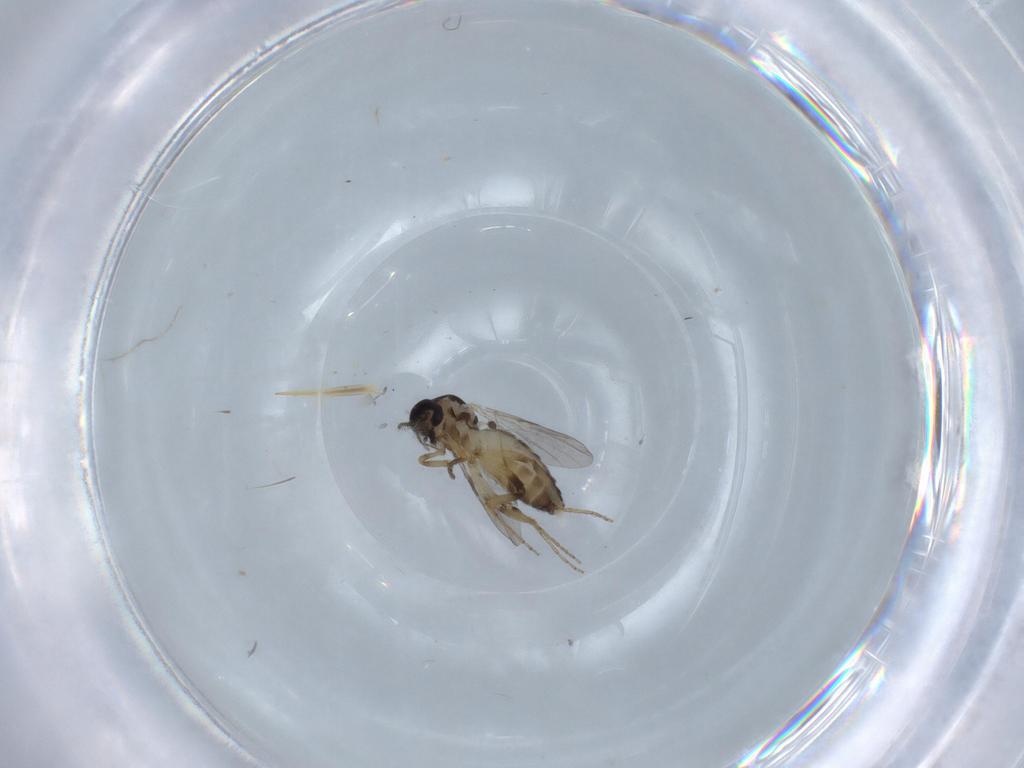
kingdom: Animalia
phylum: Arthropoda
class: Insecta
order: Diptera
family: Ceratopogonidae
